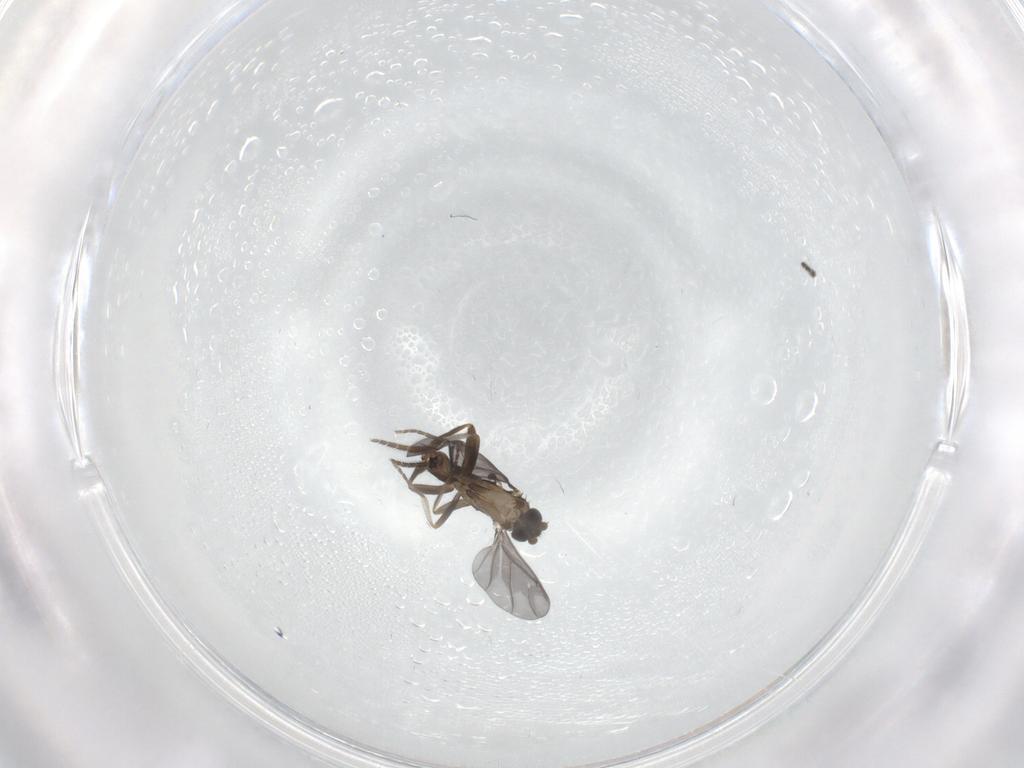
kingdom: Animalia
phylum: Arthropoda
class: Insecta
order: Diptera
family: Phoridae
